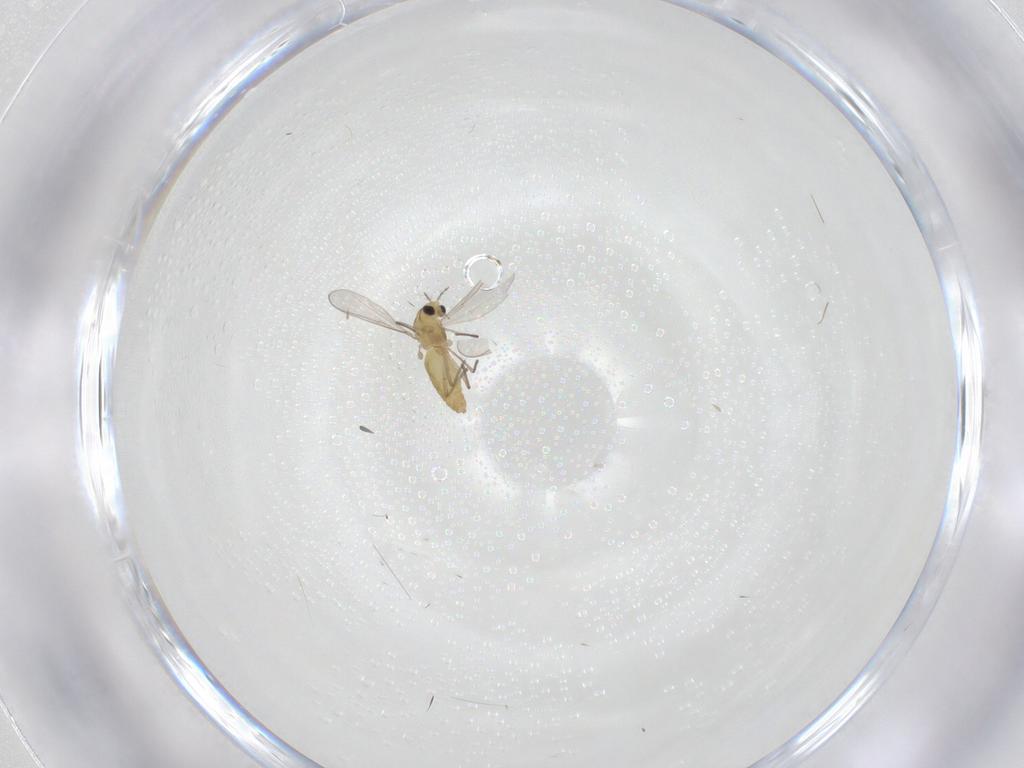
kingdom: Animalia
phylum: Arthropoda
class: Insecta
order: Diptera
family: Chironomidae
